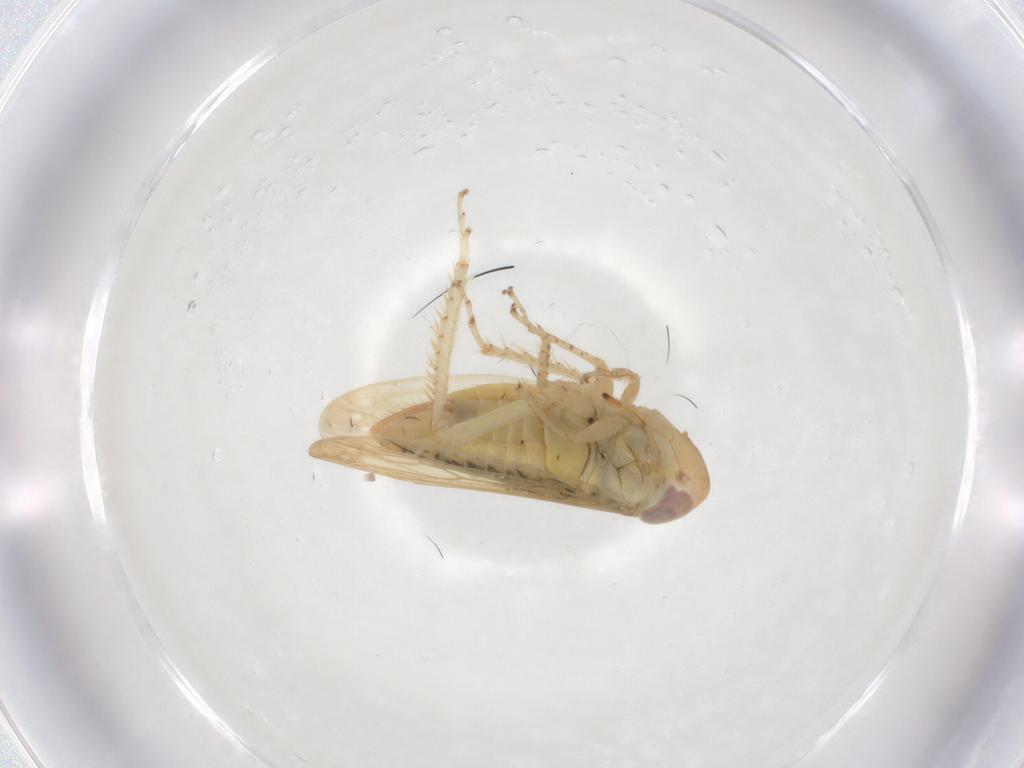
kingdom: Animalia
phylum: Arthropoda
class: Insecta
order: Hemiptera
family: Cicadellidae
